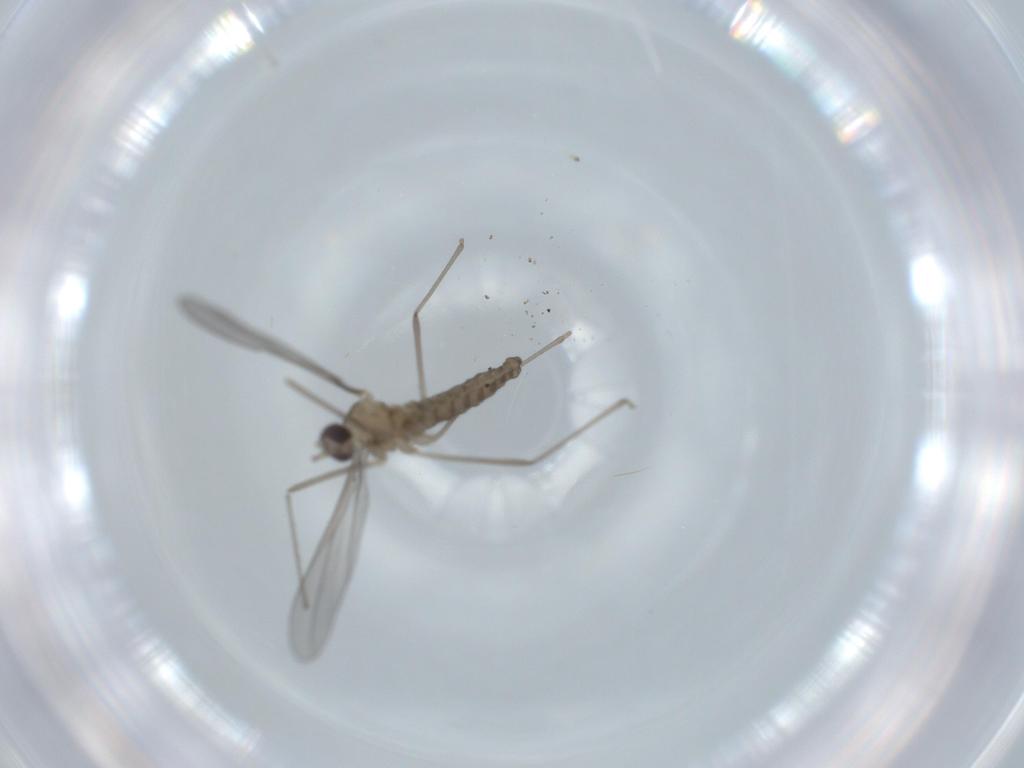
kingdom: Animalia
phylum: Arthropoda
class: Insecta
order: Diptera
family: Cecidomyiidae
